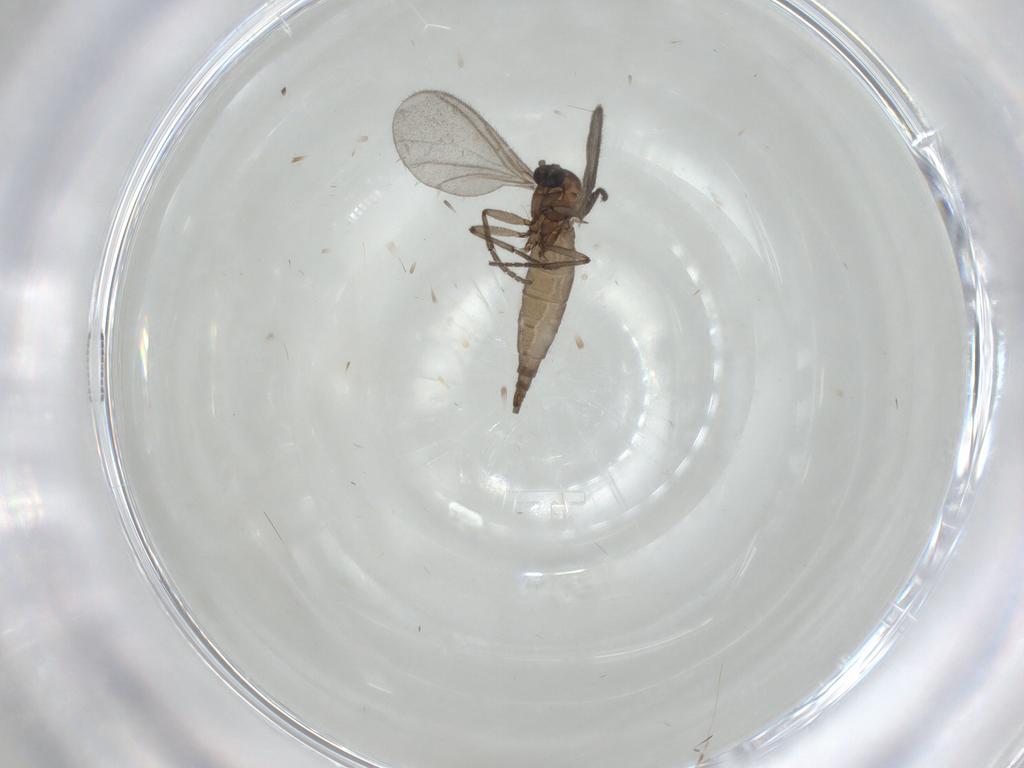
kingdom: Animalia
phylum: Arthropoda
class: Insecta
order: Diptera
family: Sciaridae
